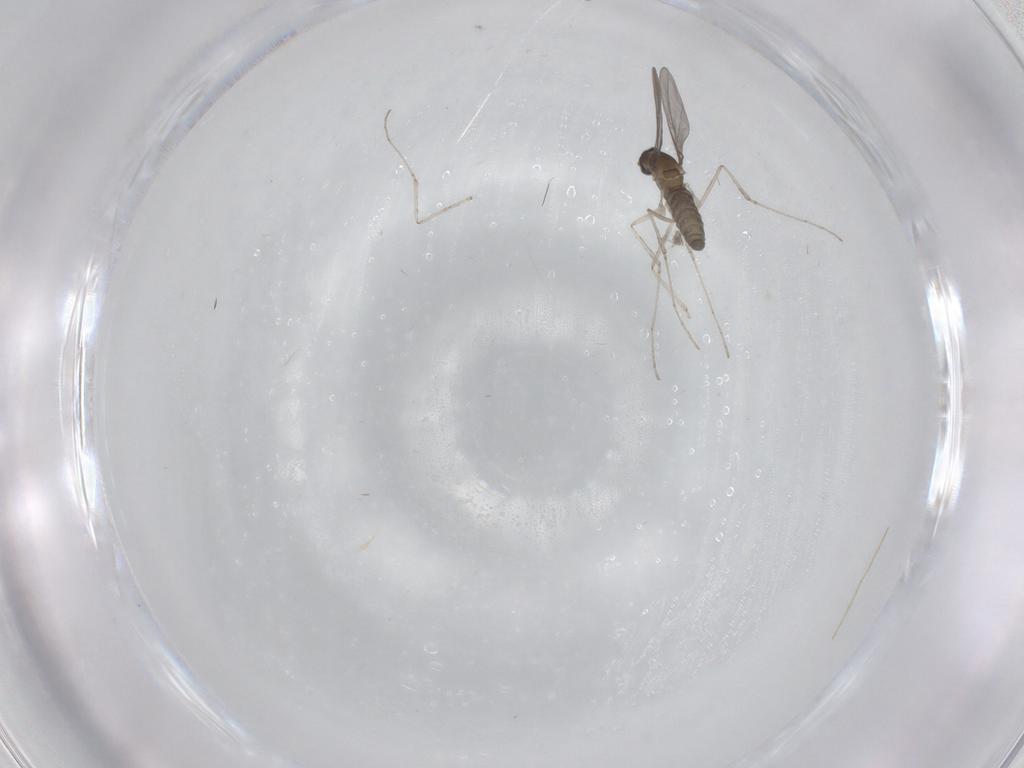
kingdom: Animalia
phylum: Arthropoda
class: Insecta
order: Diptera
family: Cecidomyiidae
